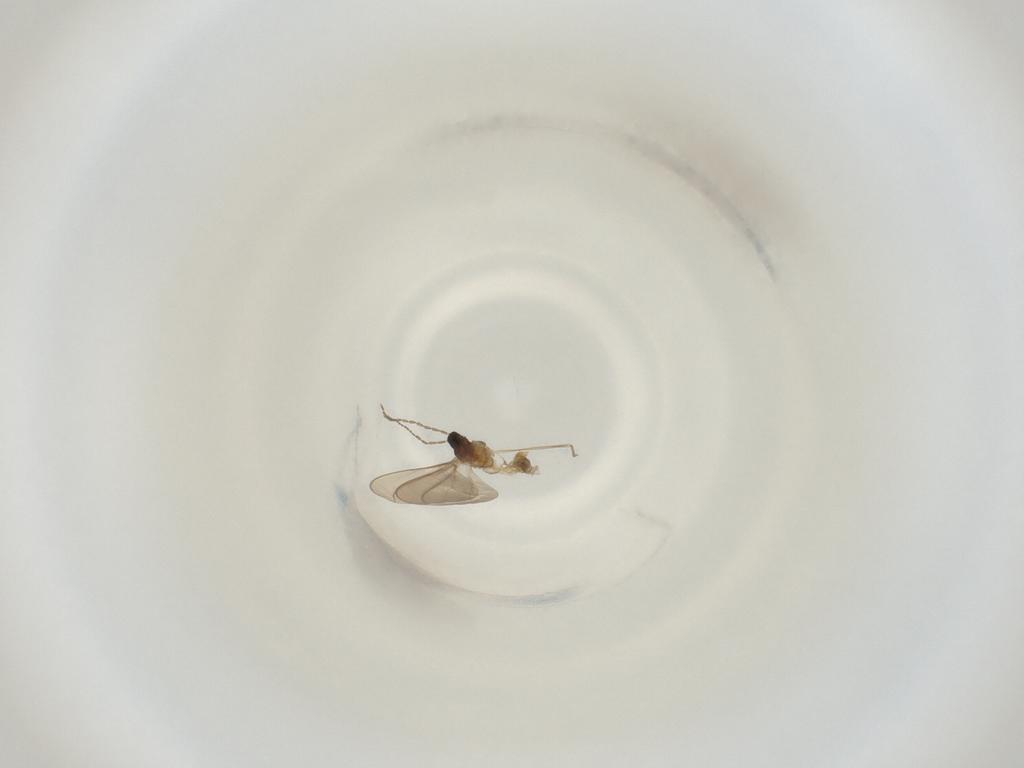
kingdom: Animalia
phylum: Arthropoda
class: Insecta
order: Diptera
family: Cecidomyiidae
